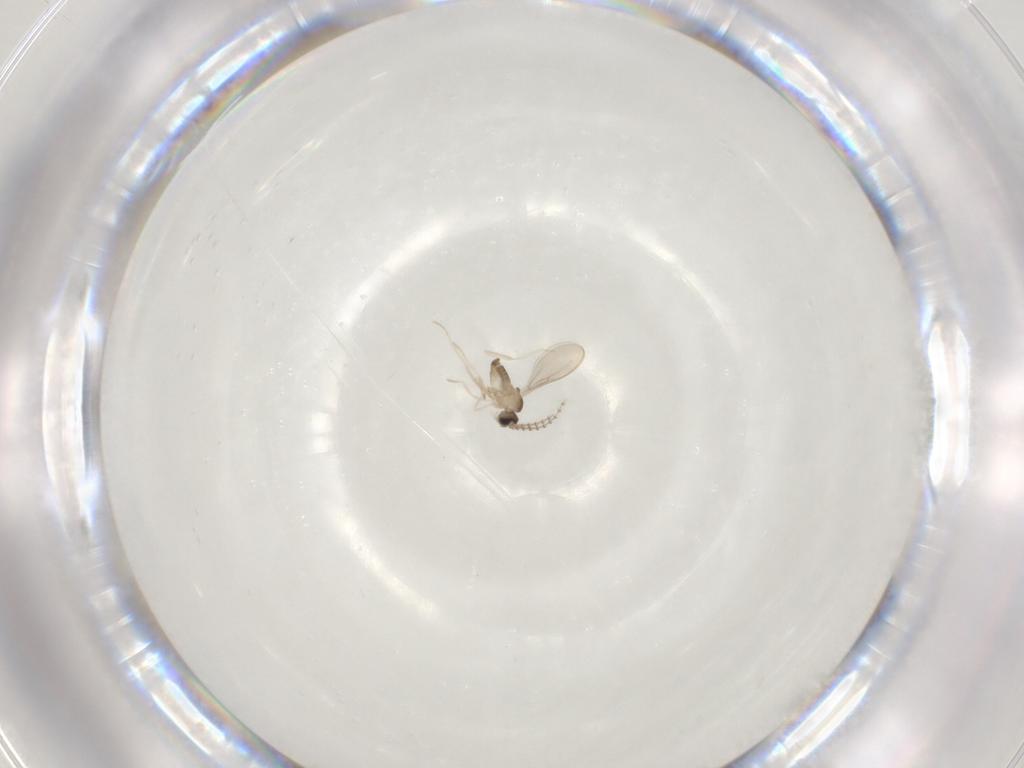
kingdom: Animalia
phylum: Arthropoda
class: Insecta
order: Diptera
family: Cecidomyiidae
